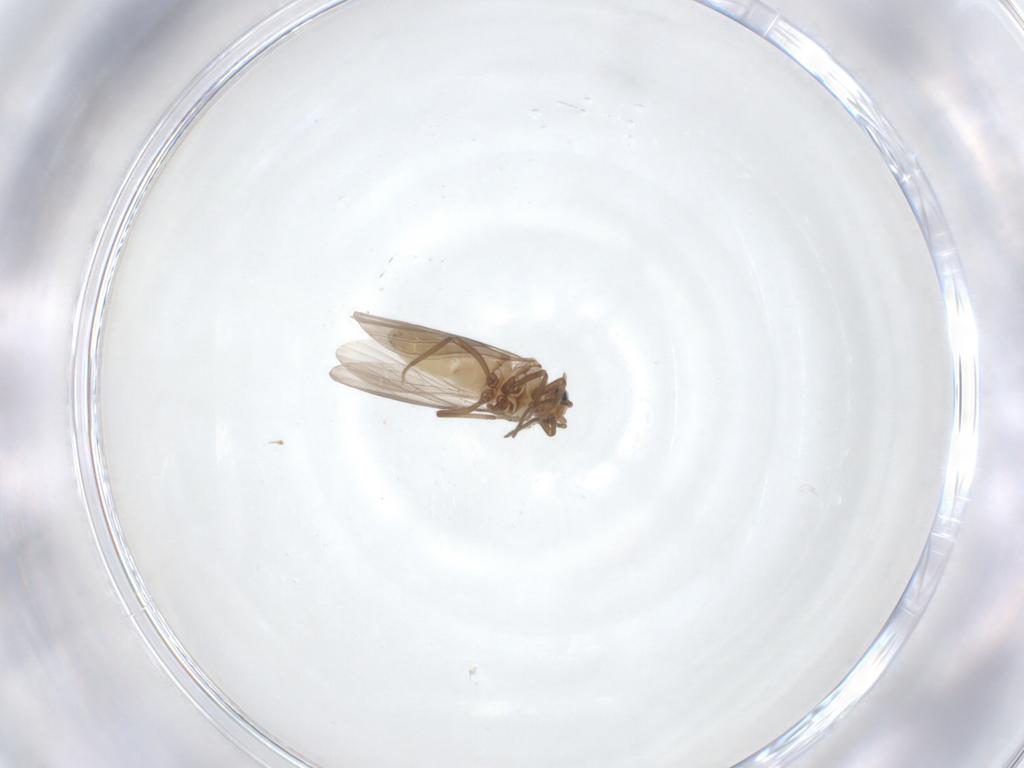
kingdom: Animalia
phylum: Arthropoda
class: Insecta
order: Neuroptera
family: Coniopterygidae
